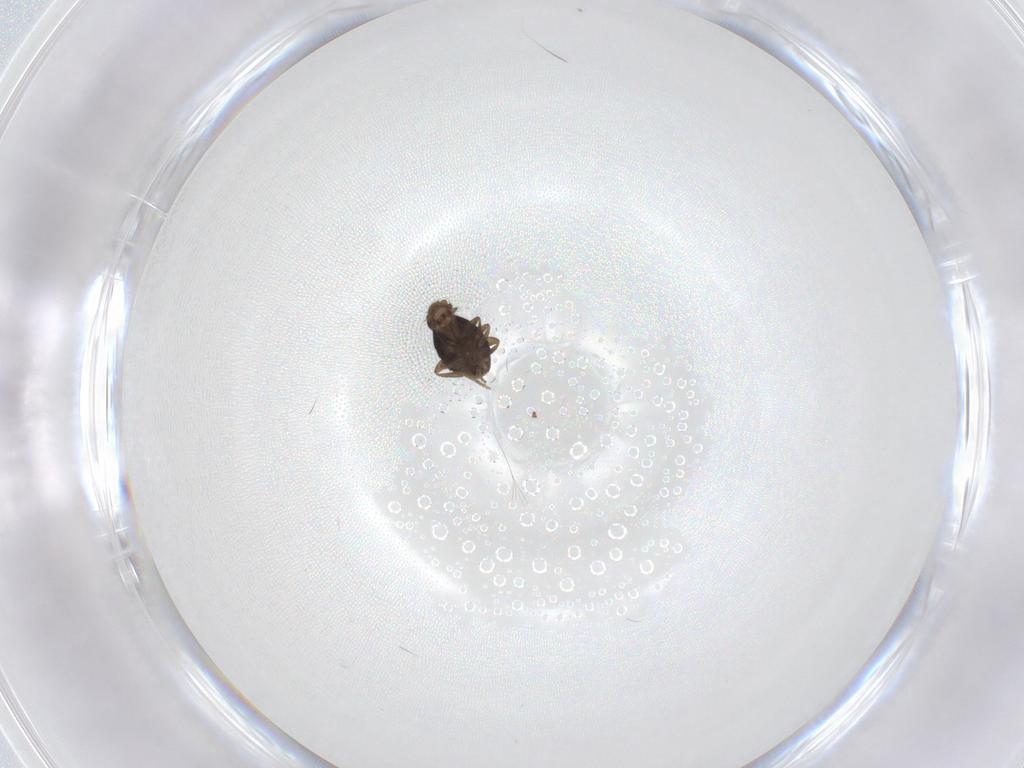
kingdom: Animalia
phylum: Arthropoda
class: Insecta
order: Diptera
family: Phoridae
